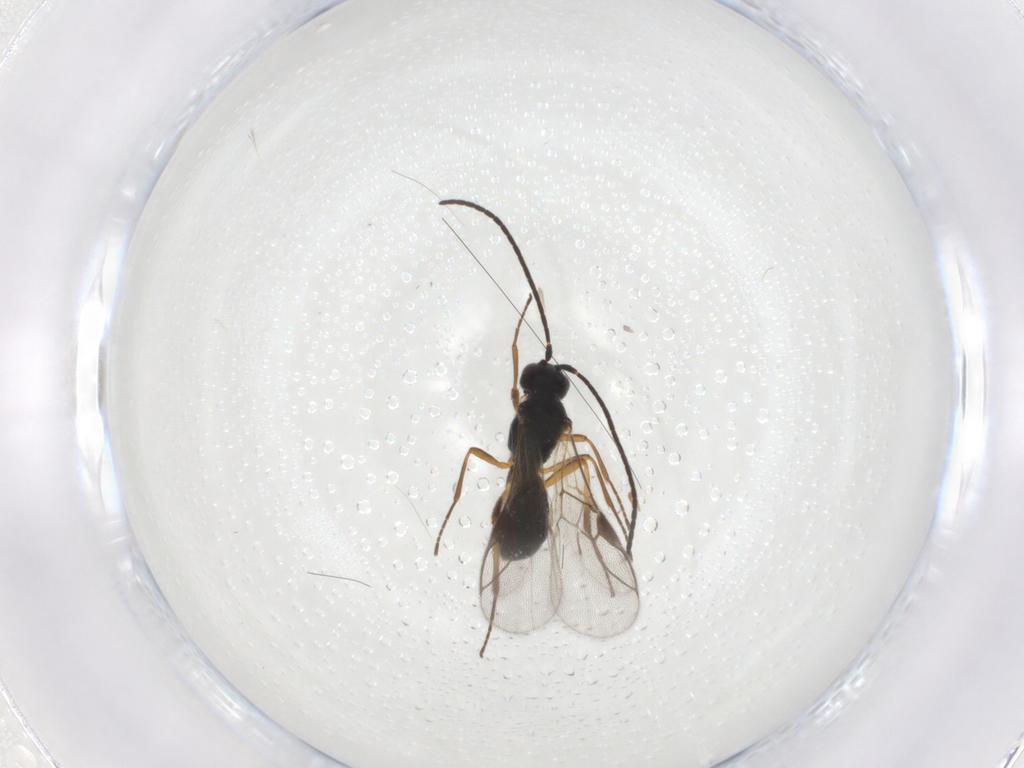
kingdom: Animalia
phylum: Arthropoda
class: Insecta
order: Hymenoptera
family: Braconidae
